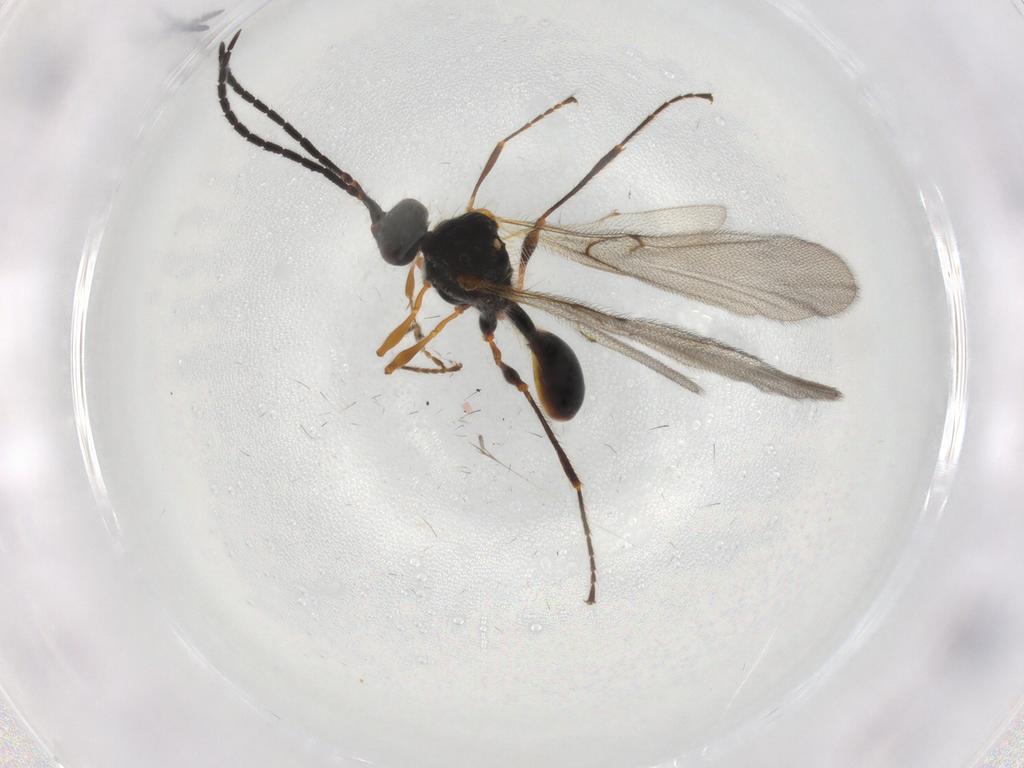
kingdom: Animalia
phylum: Arthropoda
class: Insecta
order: Hymenoptera
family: Diapriidae
